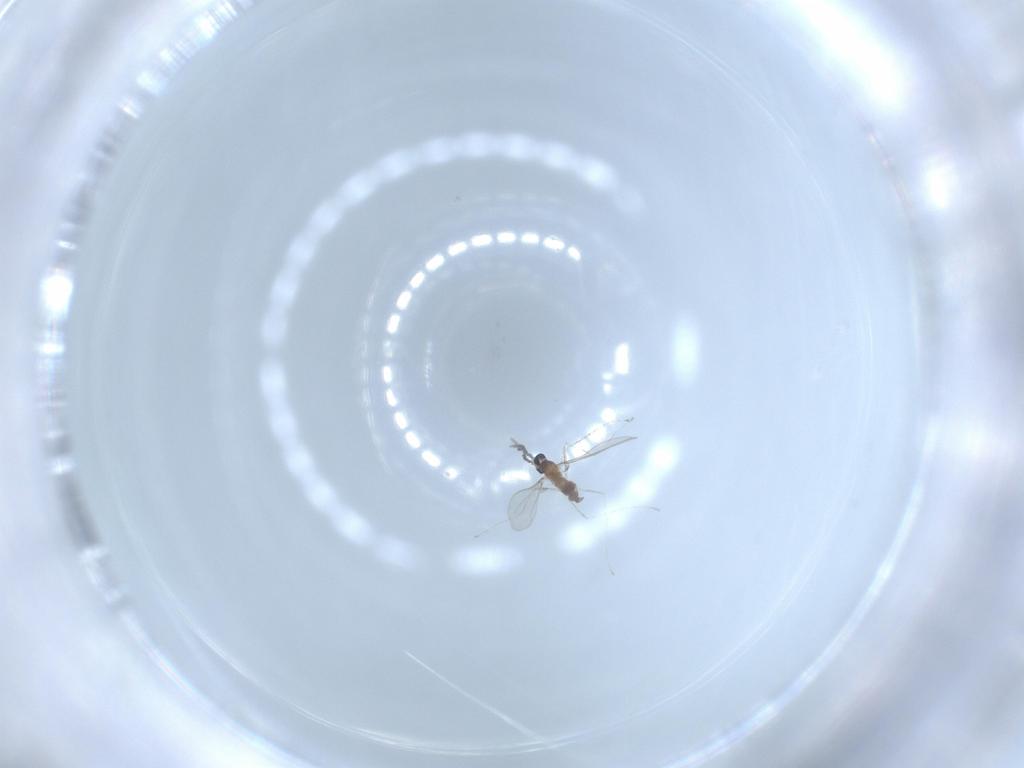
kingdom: Animalia
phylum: Arthropoda
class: Insecta
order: Diptera
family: Cecidomyiidae
